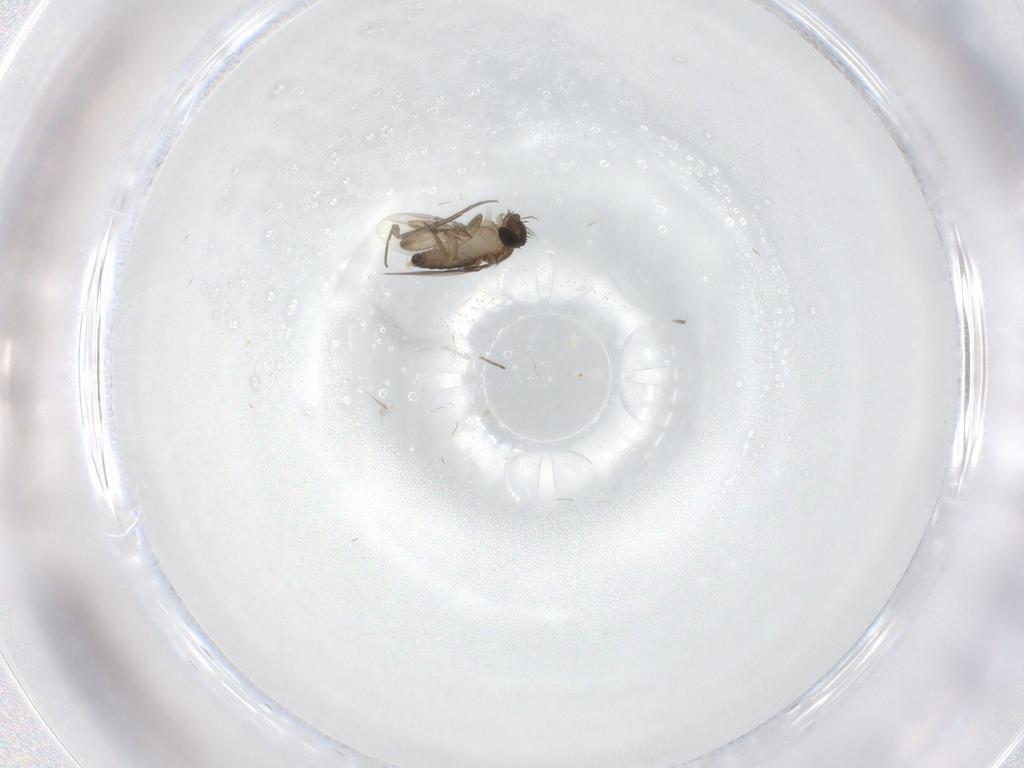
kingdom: Animalia
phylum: Arthropoda
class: Insecta
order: Diptera
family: Phoridae
